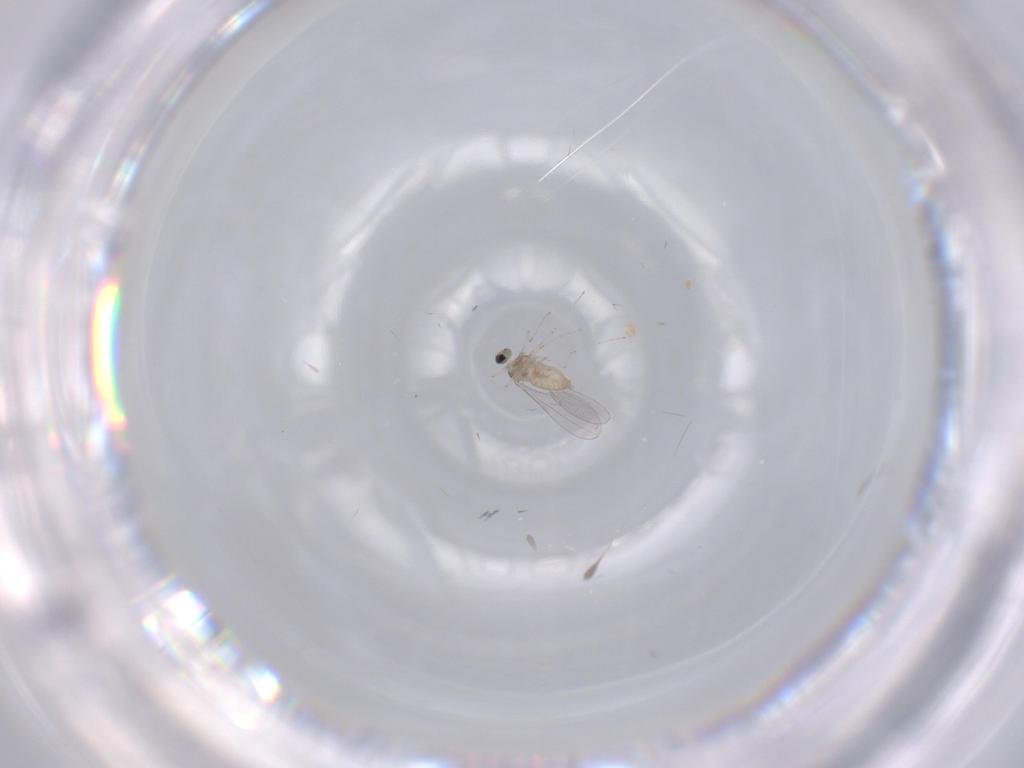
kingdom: Animalia
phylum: Arthropoda
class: Insecta
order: Diptera
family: Cecidomyiidae
